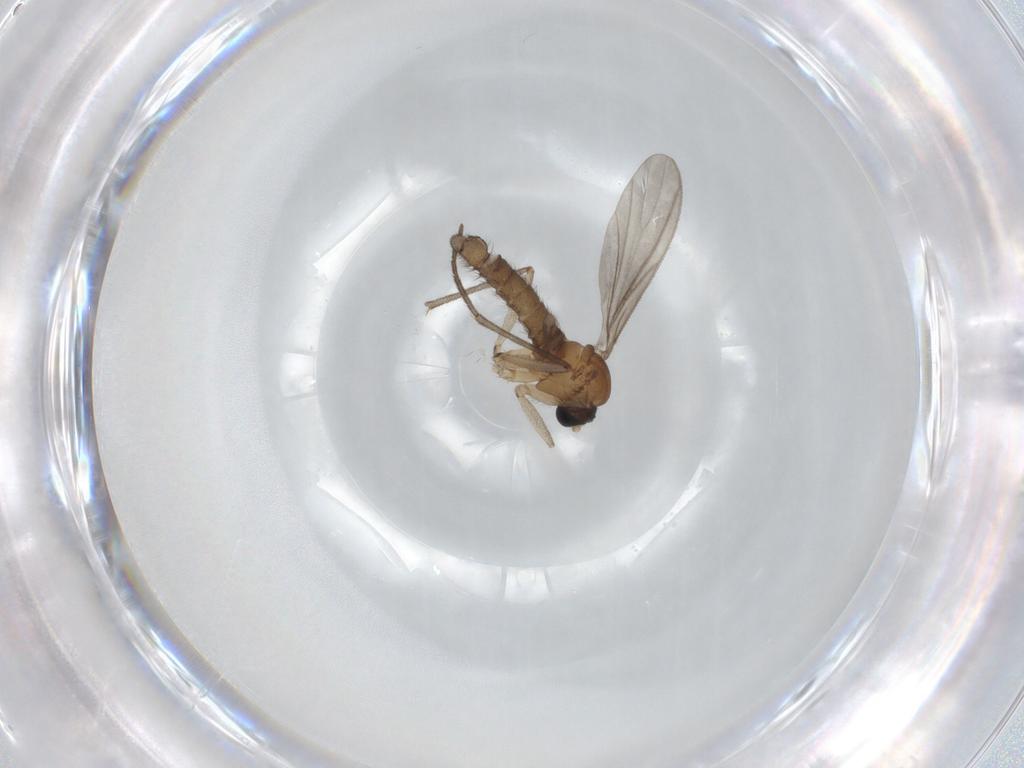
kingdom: Animalia
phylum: Arthropoda
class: Insecta
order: Diptera
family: Sciaridae
